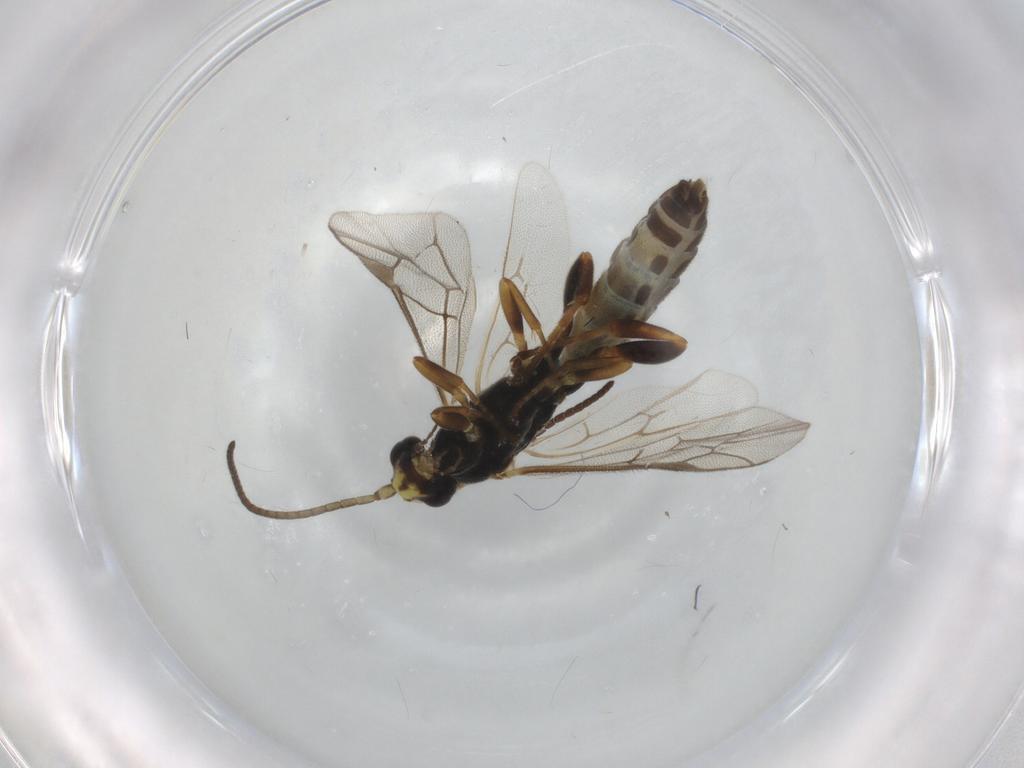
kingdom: Animalia
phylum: Arthropoda
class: Insecta
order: Hymenoptera
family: Ichneumonidae
